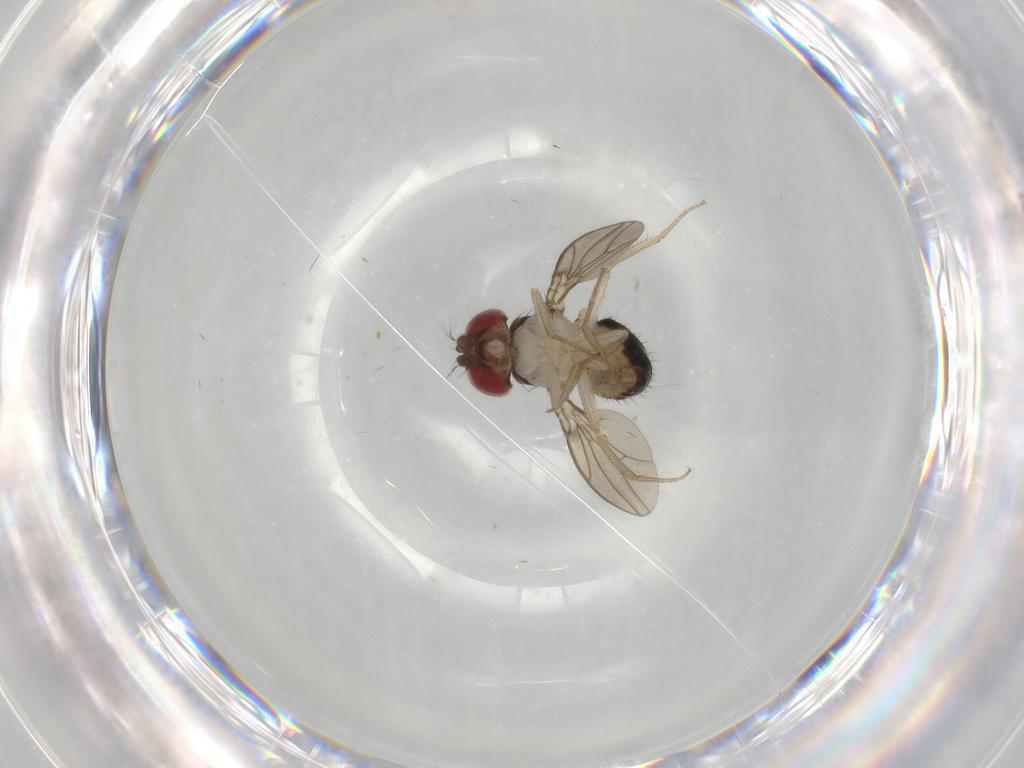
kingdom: Animalia
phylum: Arthropoda
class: Insecta
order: Diptera
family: Drosophilidae
